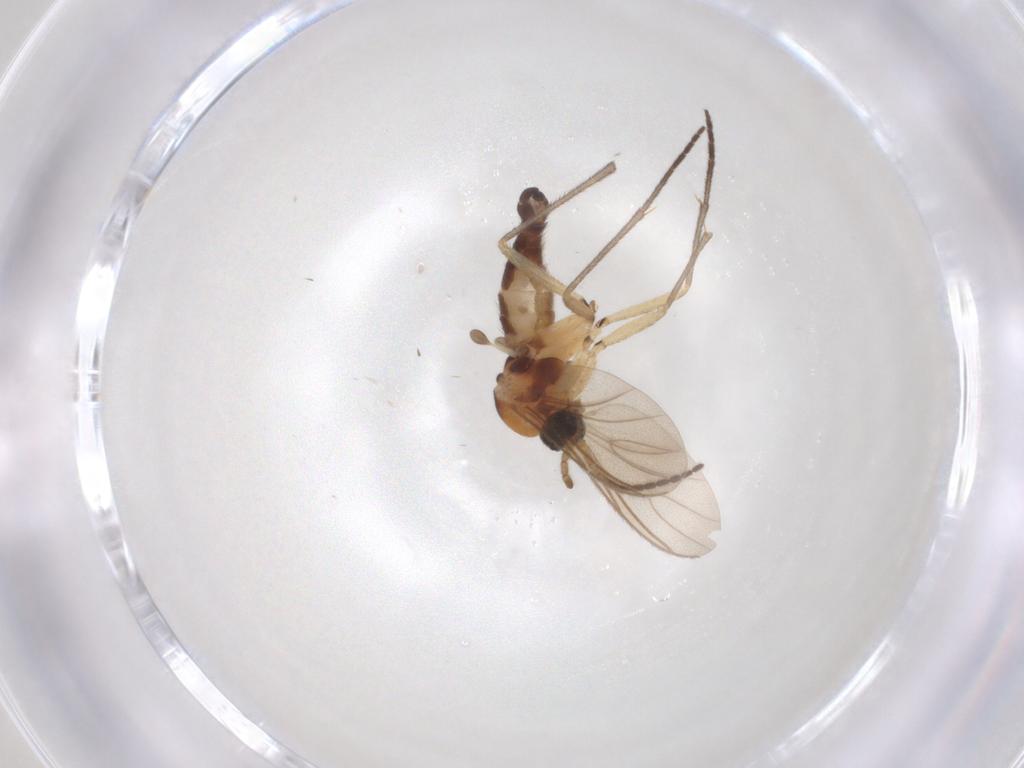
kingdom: Animalia
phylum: Arthropoda
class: Insecta
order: Diptera
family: Sciaridae
